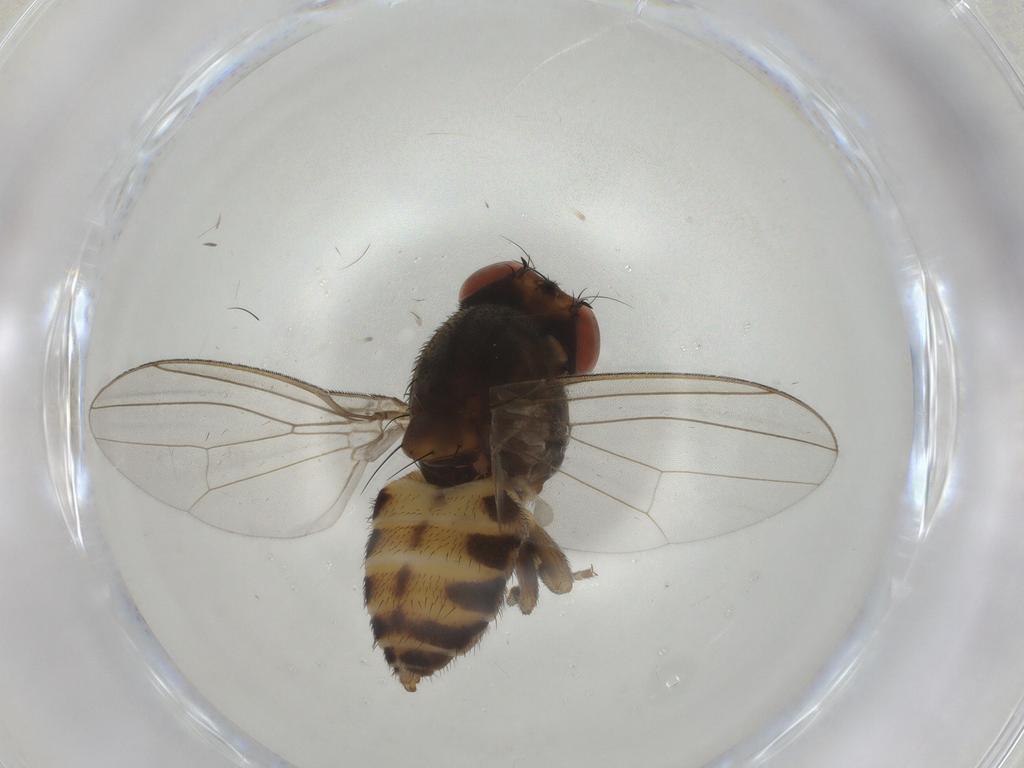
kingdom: Animalia
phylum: Arthropoda
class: Insecta
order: Diptera
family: Drosophilidae
